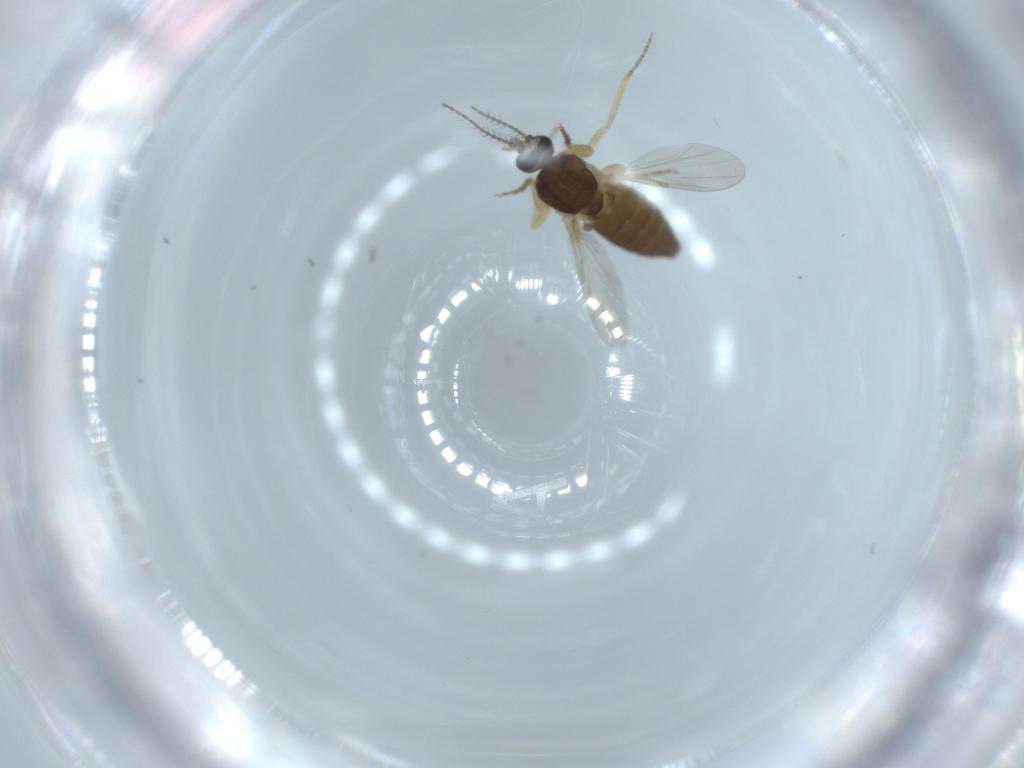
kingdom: Animalia
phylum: Arthropoda
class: Insecta
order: Diptera
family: Ceratopogonidae
